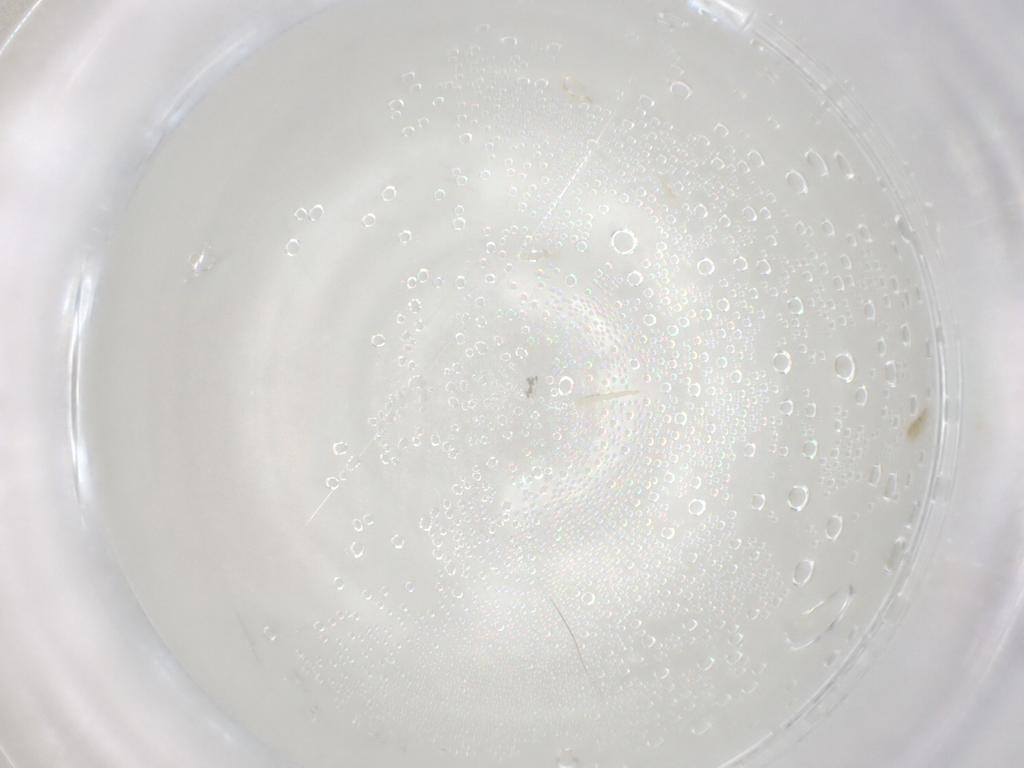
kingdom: Animalia
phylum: Arthropoda
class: Arachnida
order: Trombidiformes
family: Eupodidae
